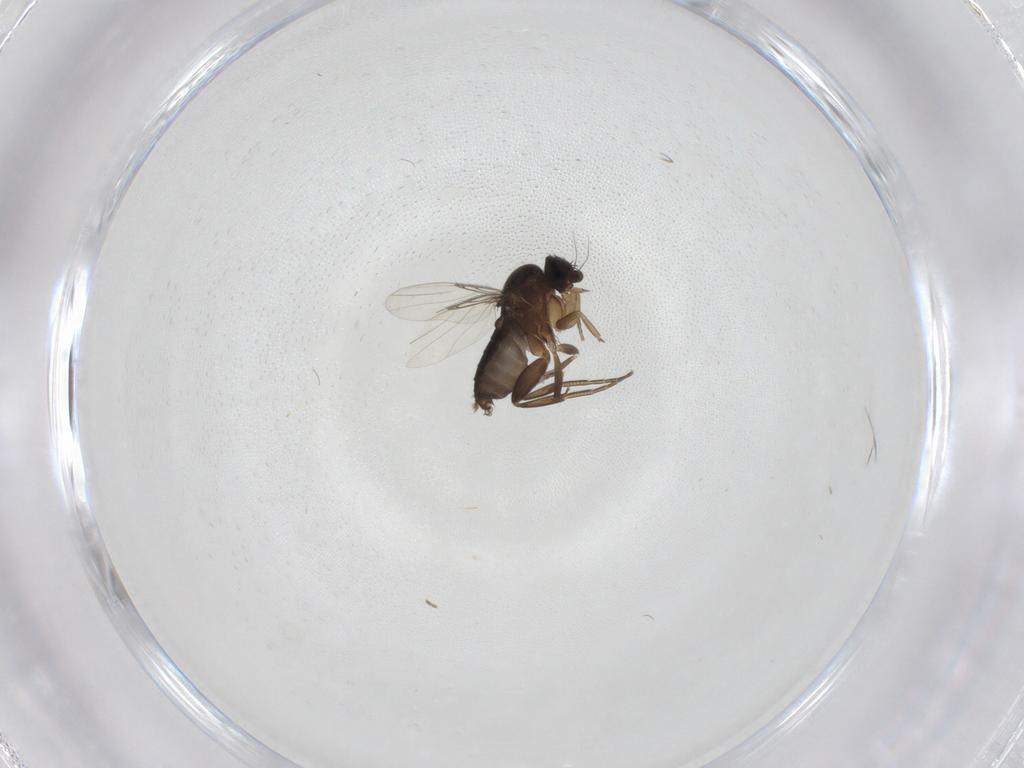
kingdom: Animalia
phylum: Arthropoda
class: Insecta
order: Diptera
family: Phoridae
